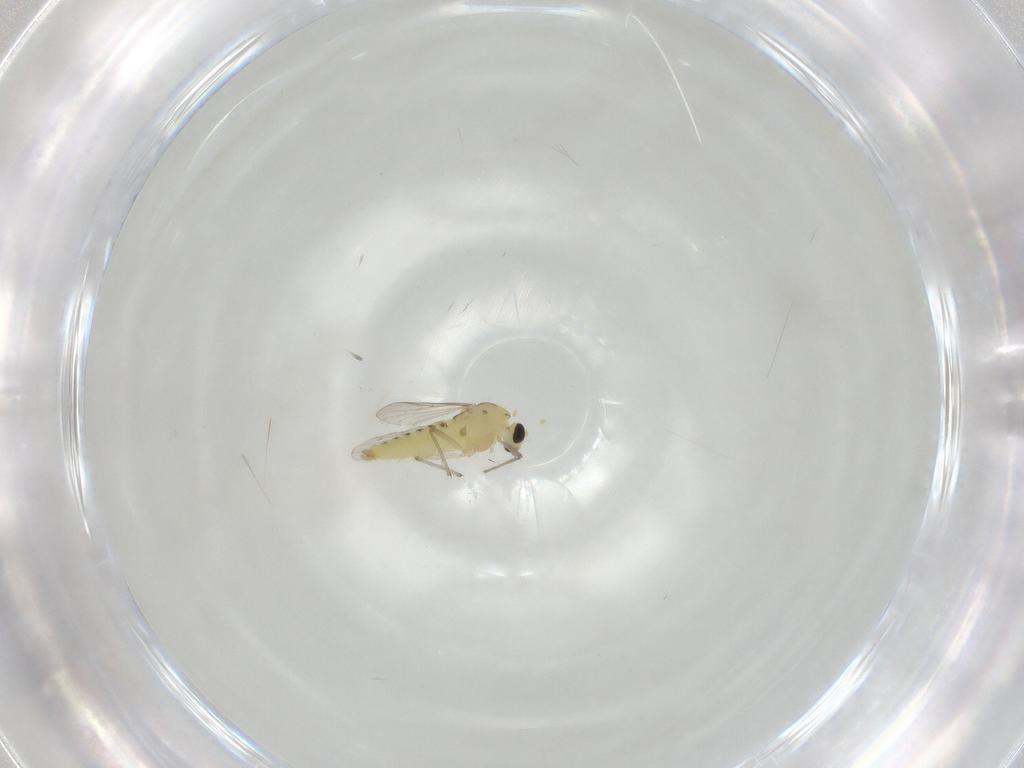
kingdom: Animalia
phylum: Arthropoda
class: Insecta
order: Diptera
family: Chironomidae
